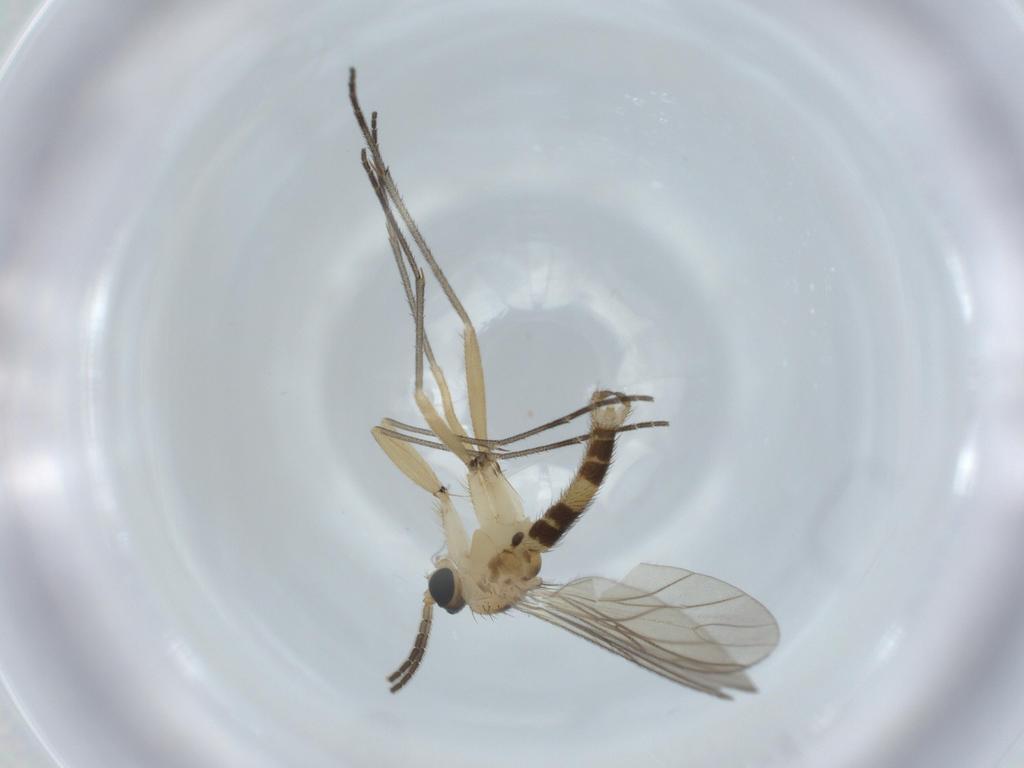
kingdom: Animalia
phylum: Arthropoda
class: Insecta
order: Diptera
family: Sciaridae
